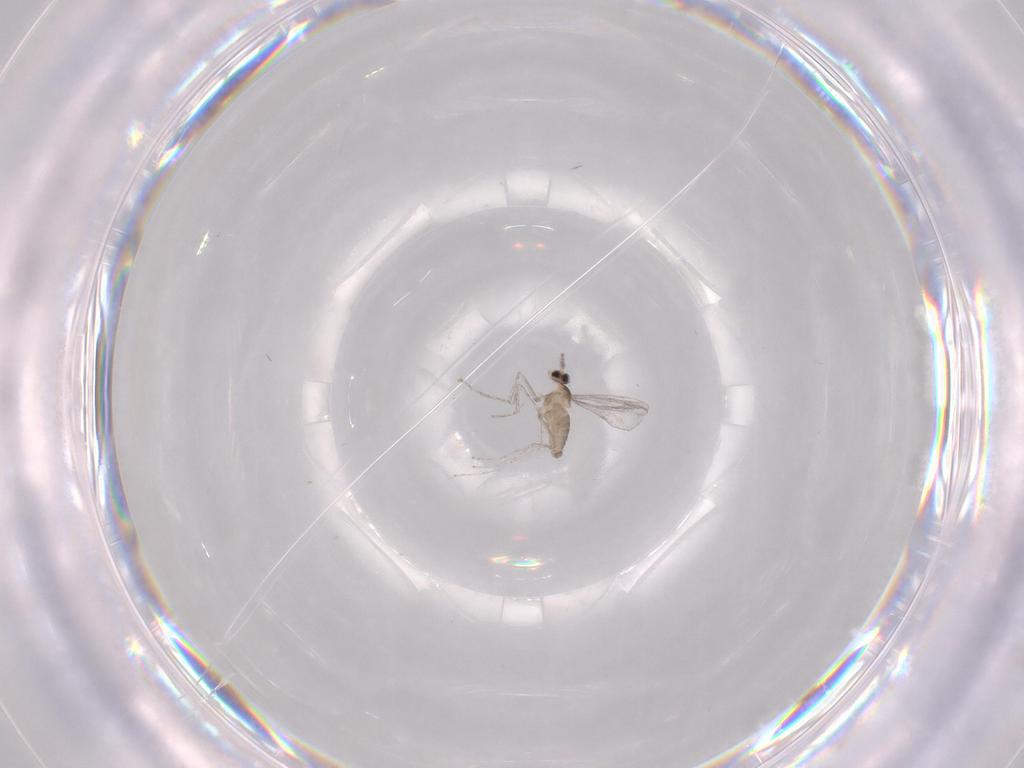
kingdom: Animalia
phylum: Arthropoda
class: Insecta
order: Diptera
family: Cecidomyiidae
